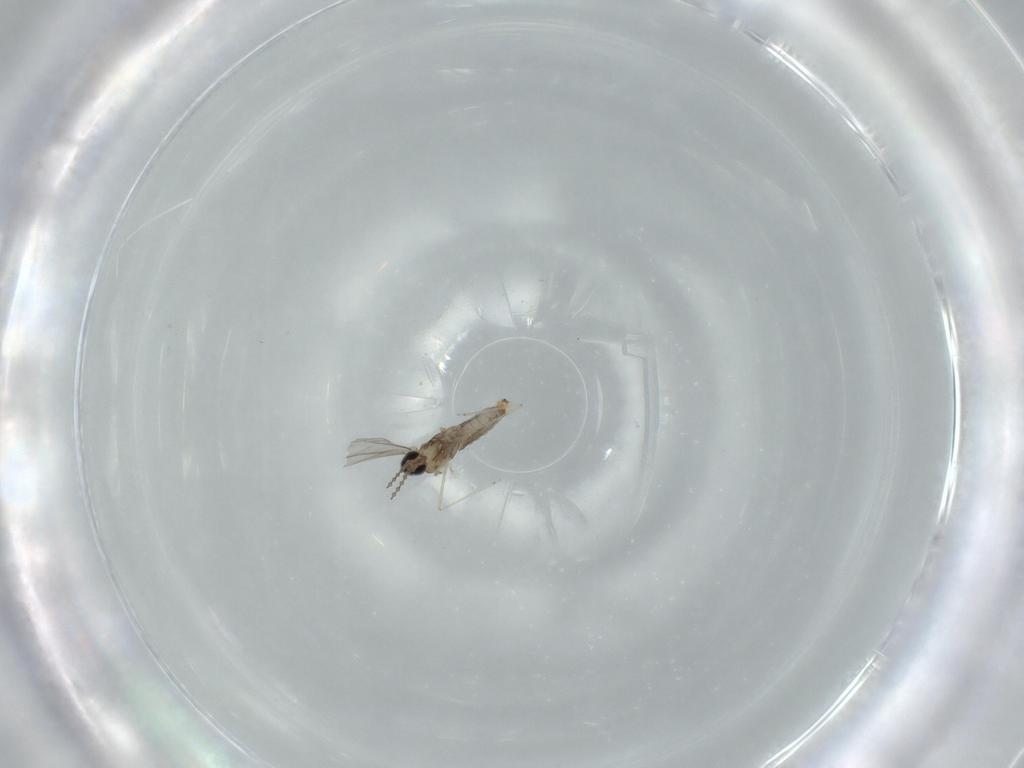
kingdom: Animalia
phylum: Arthropoda
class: Insecta
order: Diptera
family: Cecidomyiidae
